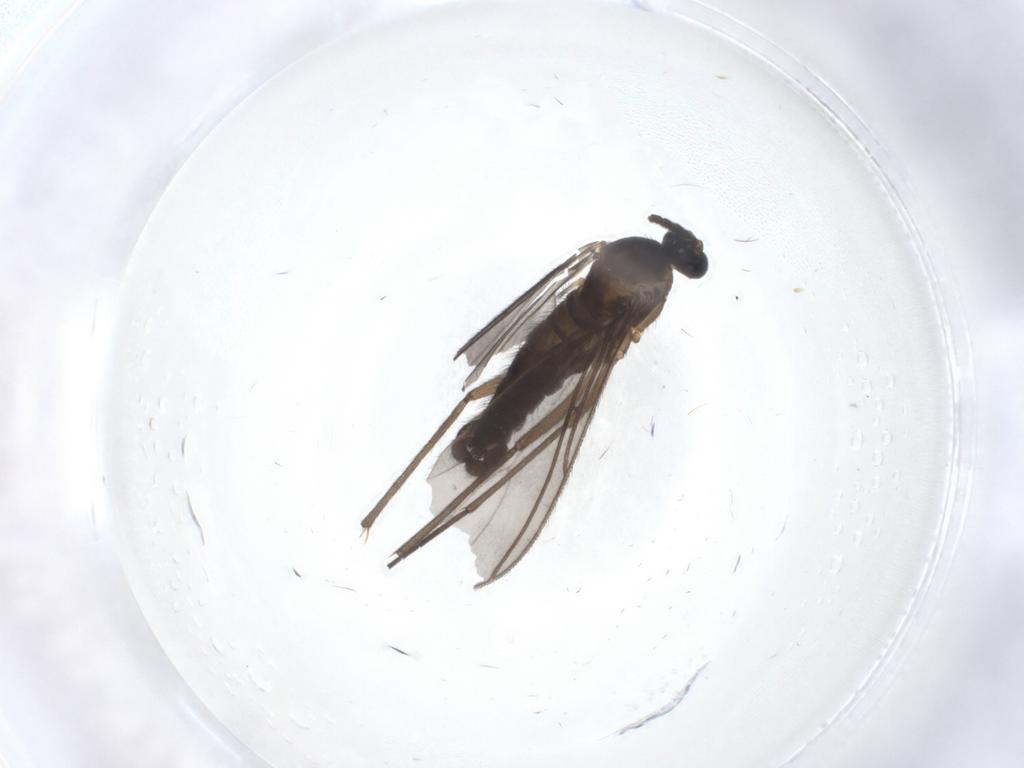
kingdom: Animalia
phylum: Arthropoda
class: Insecta
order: Diptera
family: Sciaridae
